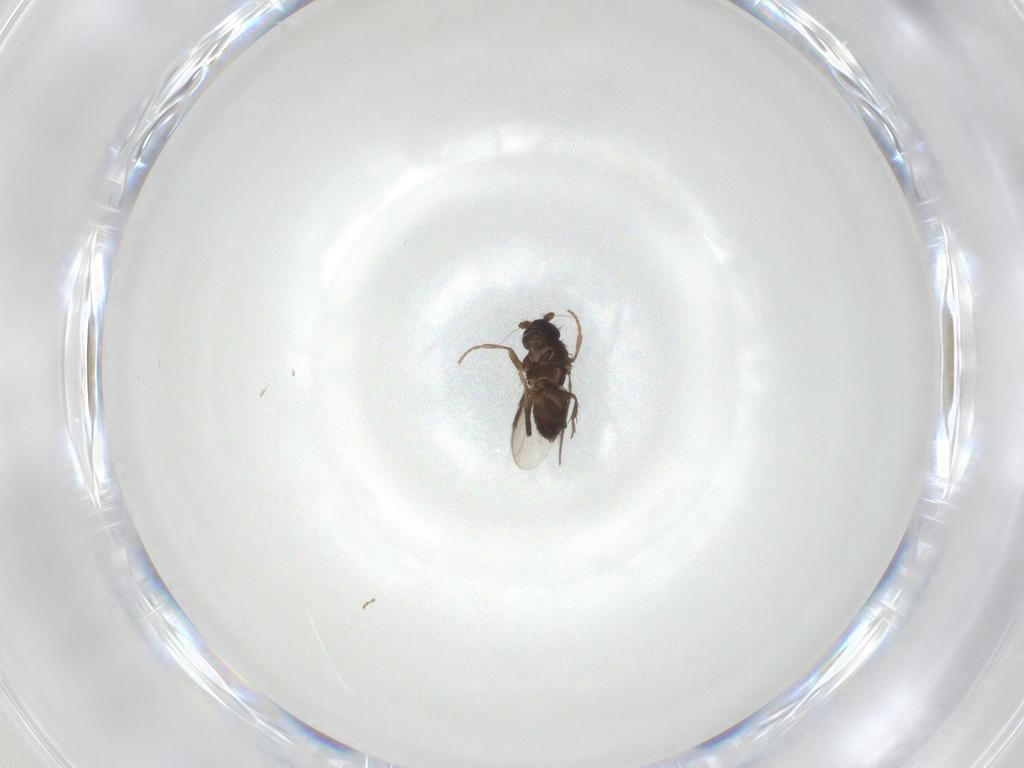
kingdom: Animalia
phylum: Arthropoda
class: Insecta
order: Diptera
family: Sphaeroceridae
